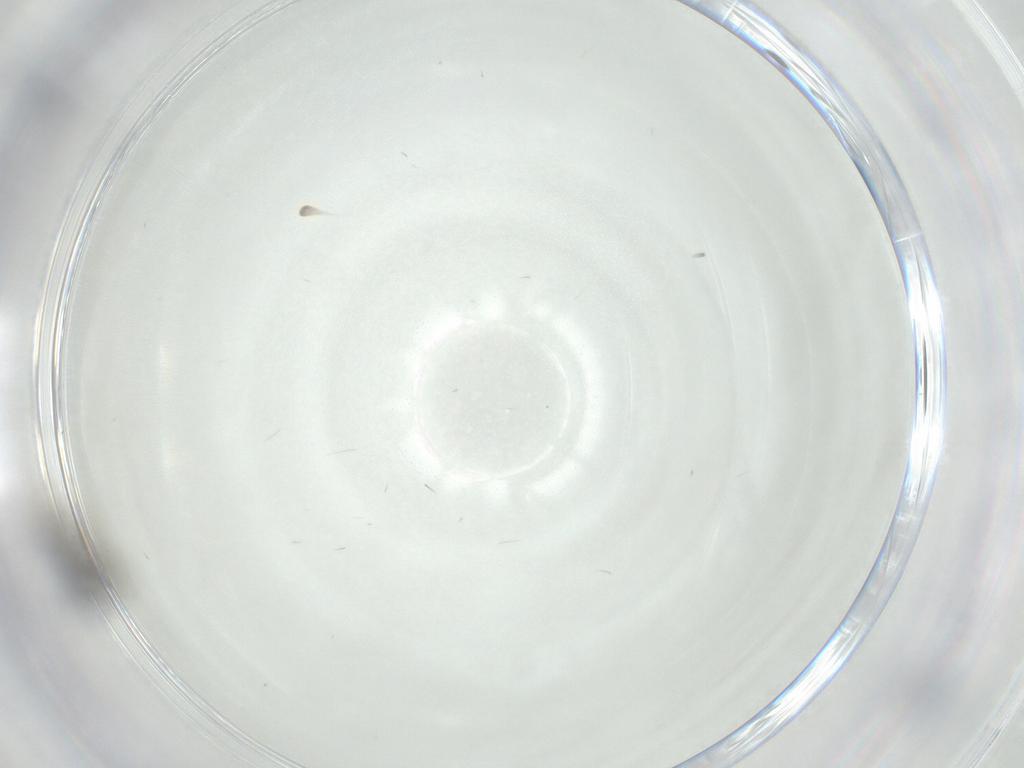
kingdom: Animalia
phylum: Arthropoda
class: Insecta
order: Hymenoptera
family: Scelionidae
